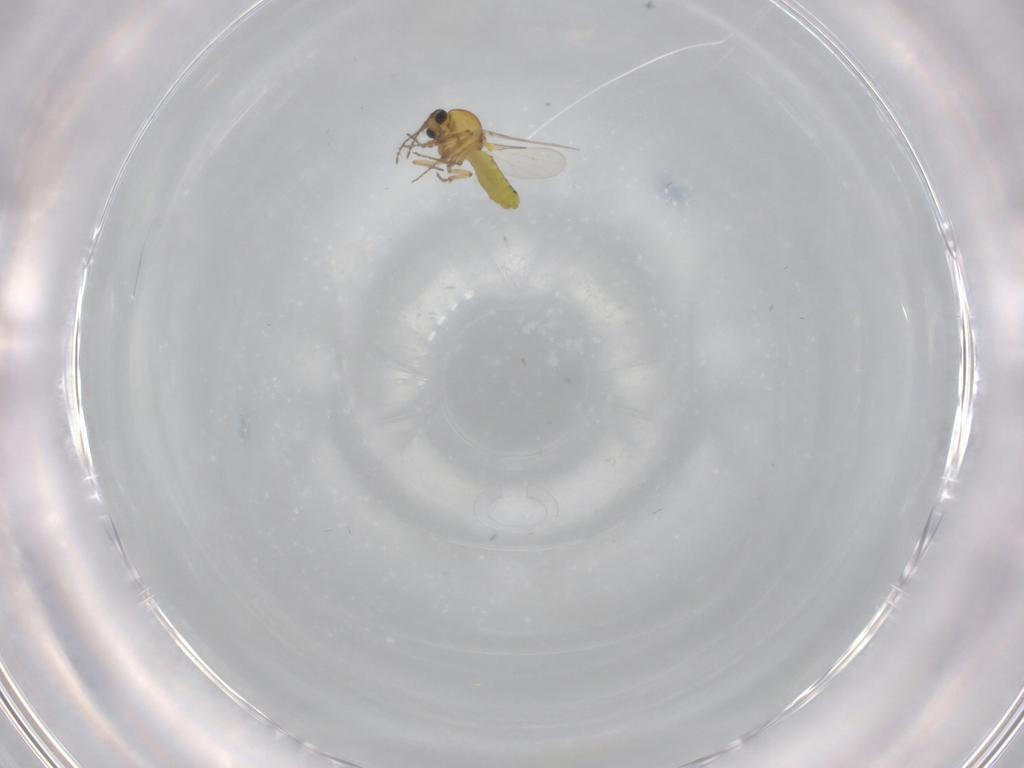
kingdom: Animalia
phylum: Arthropoda
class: Insecta
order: Diptera
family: Ceratopogonidae
